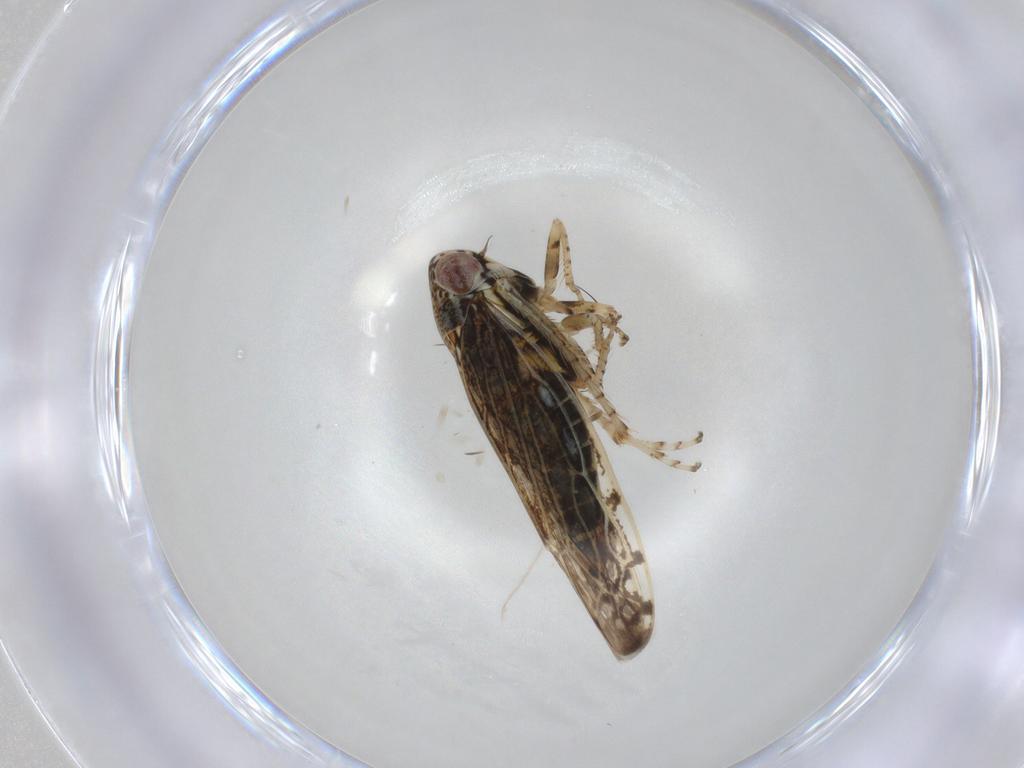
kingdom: Animalia
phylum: Arthropoda
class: Insecta
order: Hemiptera
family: Cicadellidae
